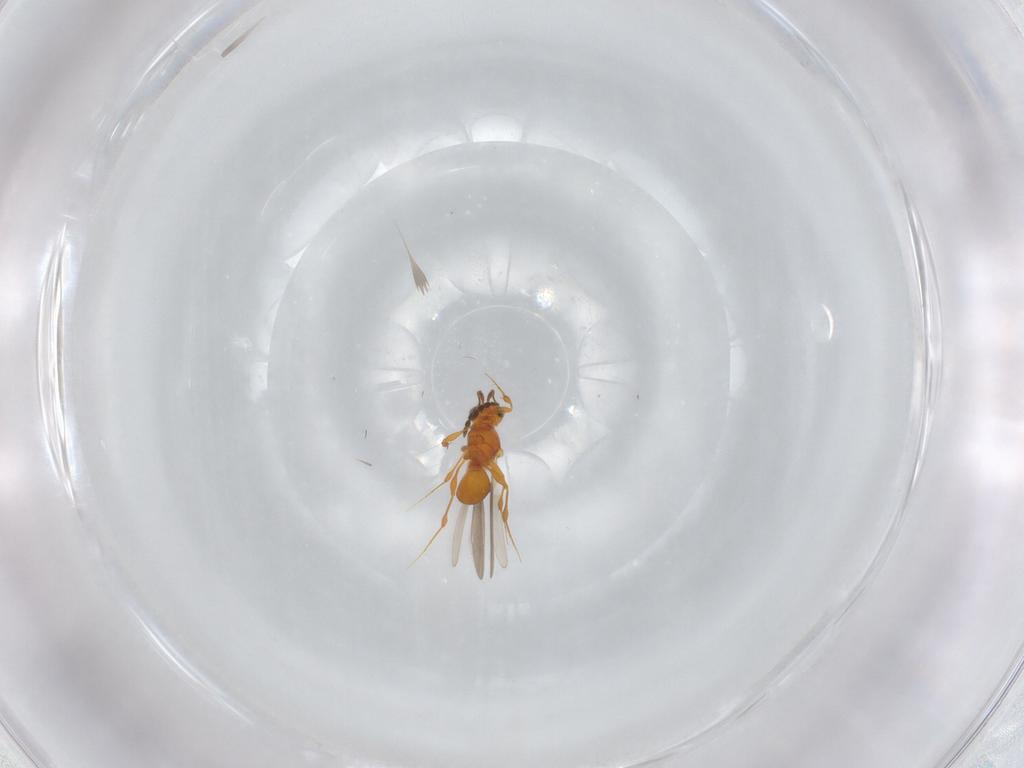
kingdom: Animalia
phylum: Arthropoda
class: Insecta
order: Hymenoptera
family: Platygastridae
